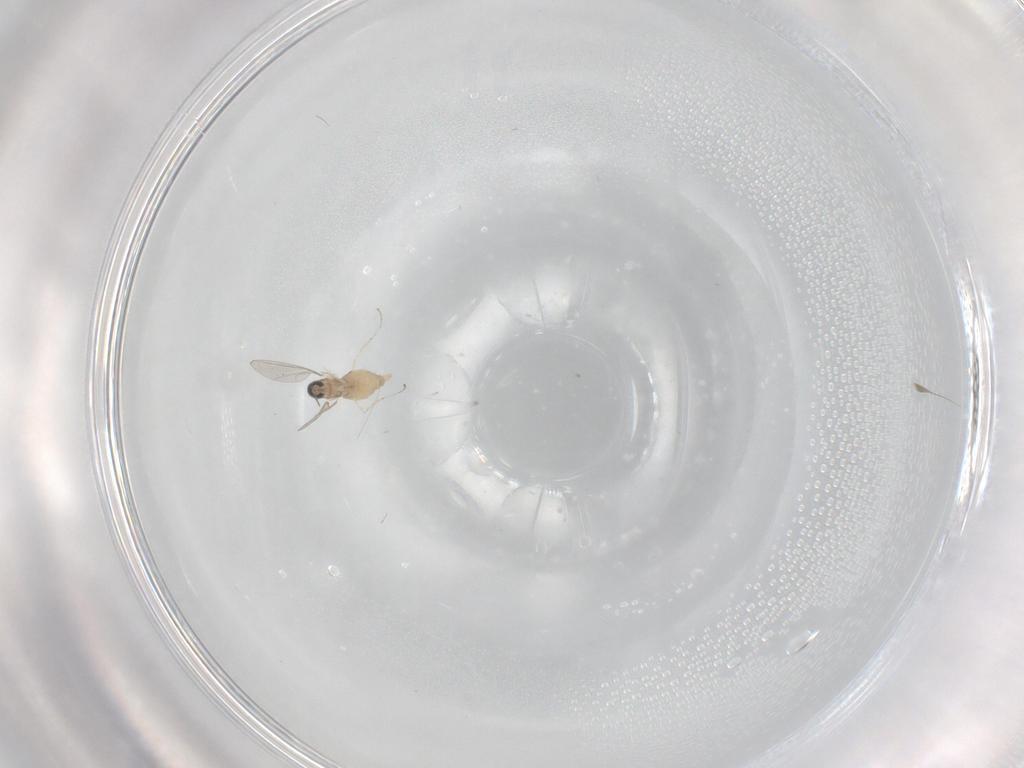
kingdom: Animalia
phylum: Arthropoda
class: Insecta
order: Diptera
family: Cecidomyiidae
